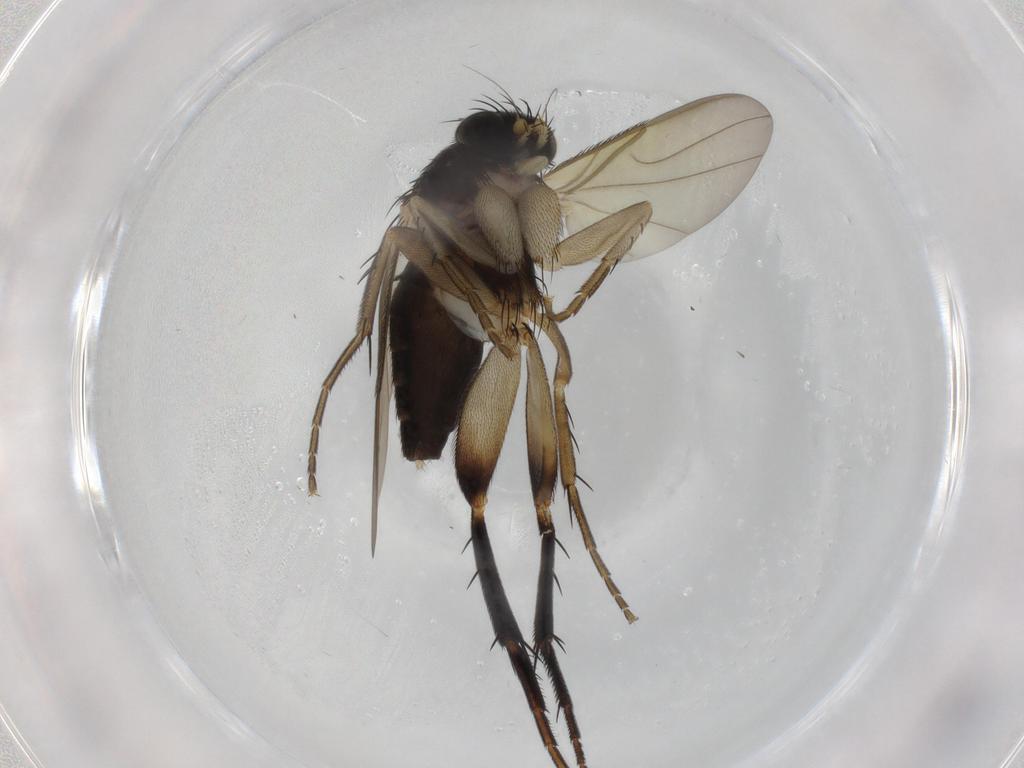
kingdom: Animalia
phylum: Arthropoda
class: Insecta
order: Diptera
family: Phoridae
